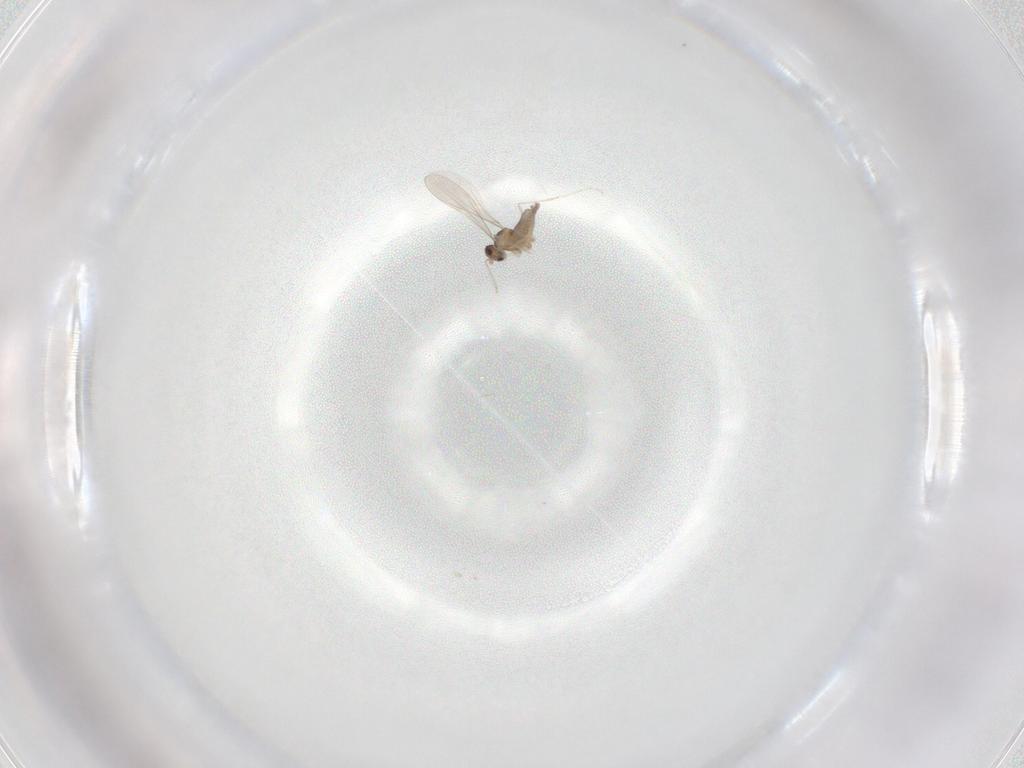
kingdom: Animalia
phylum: Arthropoda
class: Insecta
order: Diptera
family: Cecidomyiidae
